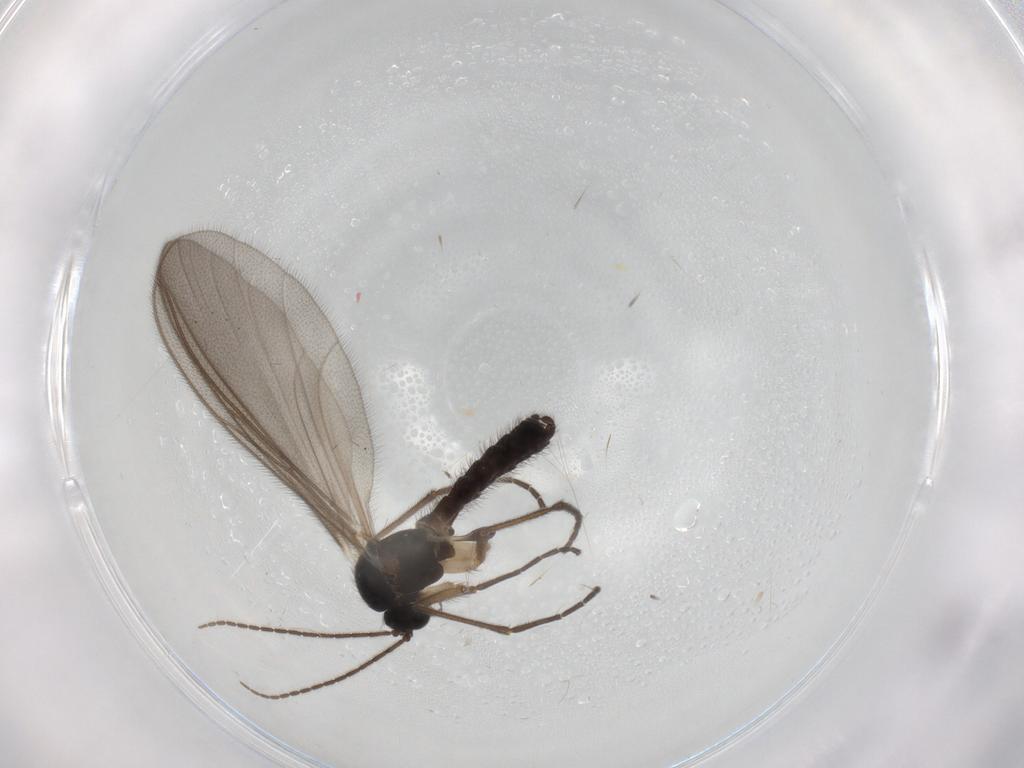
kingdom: Animalia
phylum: Arthropoda
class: Insecta
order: Diptera
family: Mycetophilidae
